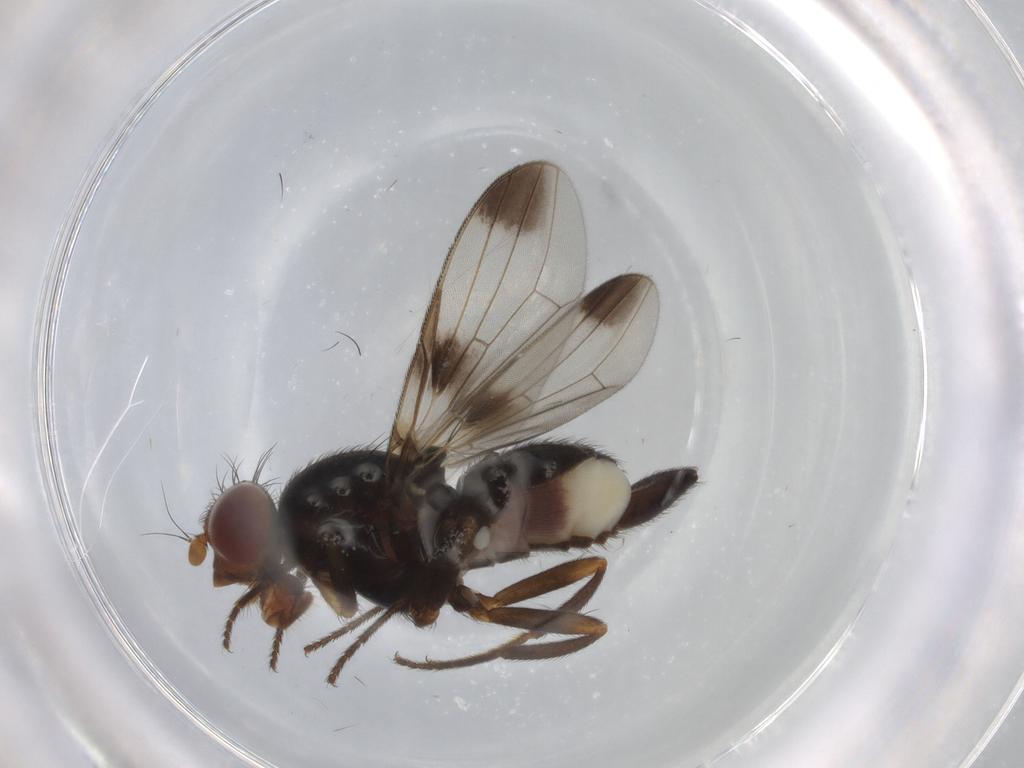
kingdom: Animalia
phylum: Arthropoda
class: Insecta
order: Diptera
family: Ulidiidae
